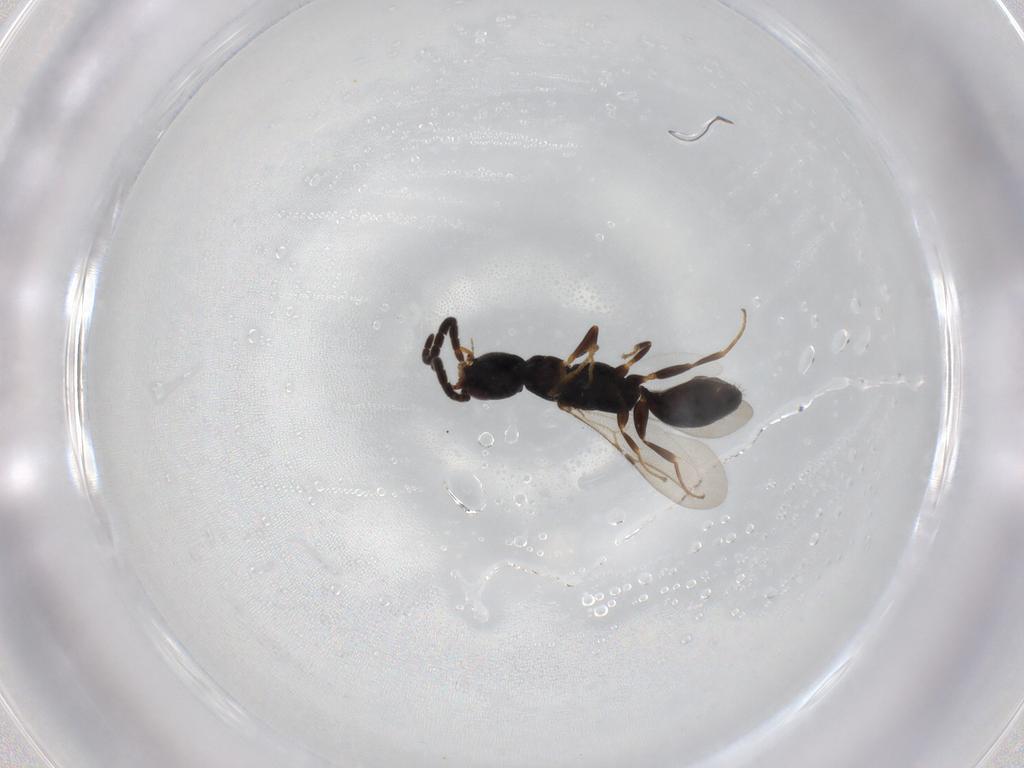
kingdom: Animalia
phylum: Arthropoda
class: Insecta
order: Hymenoptera
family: Bethylidae
